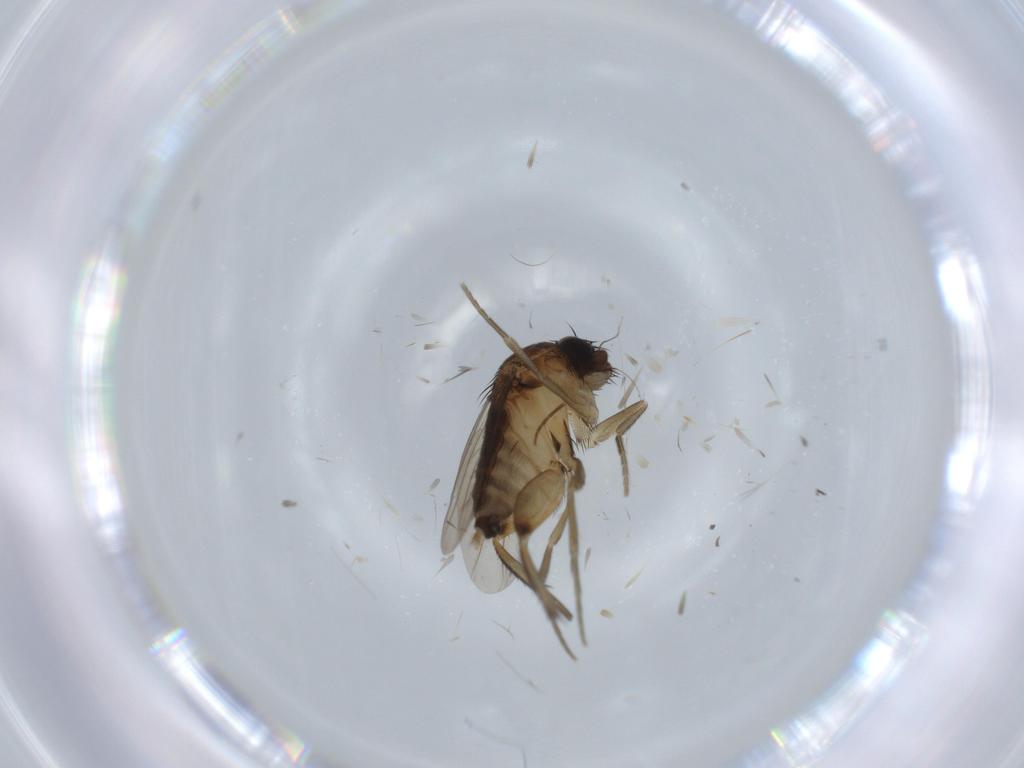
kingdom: Animalia
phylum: Arthropoda
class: Insecta
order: Diptera
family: Phoridae
